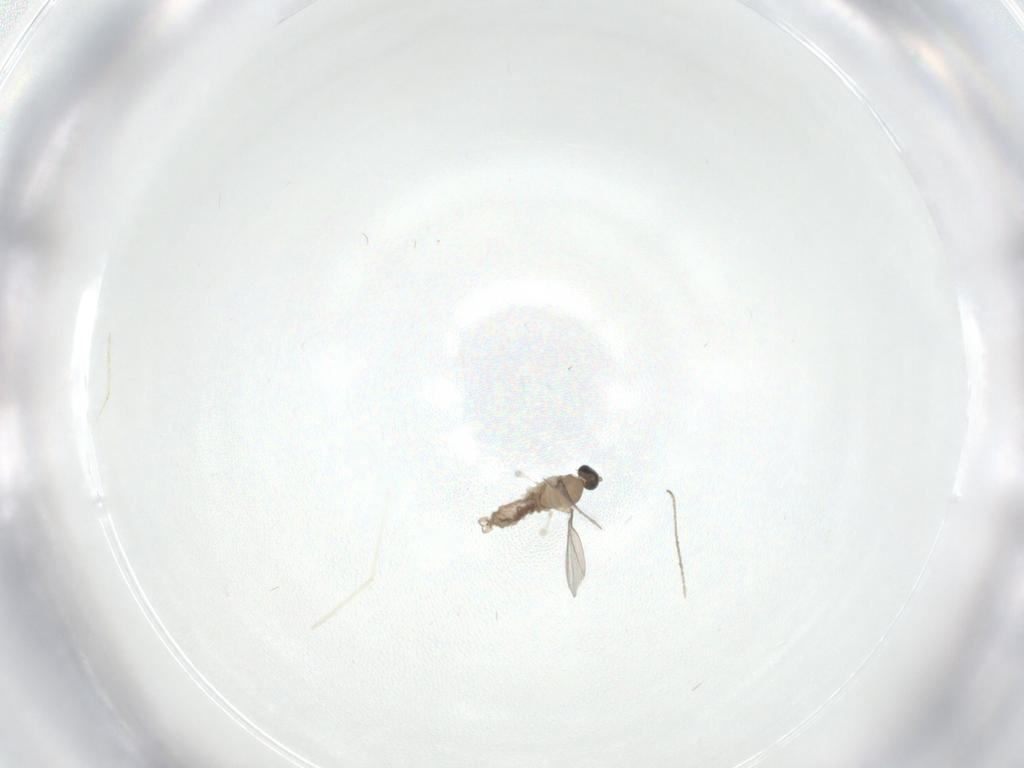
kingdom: Animalia
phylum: Arthropoda
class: Insecta
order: Diptera
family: Cecidomyiidae
